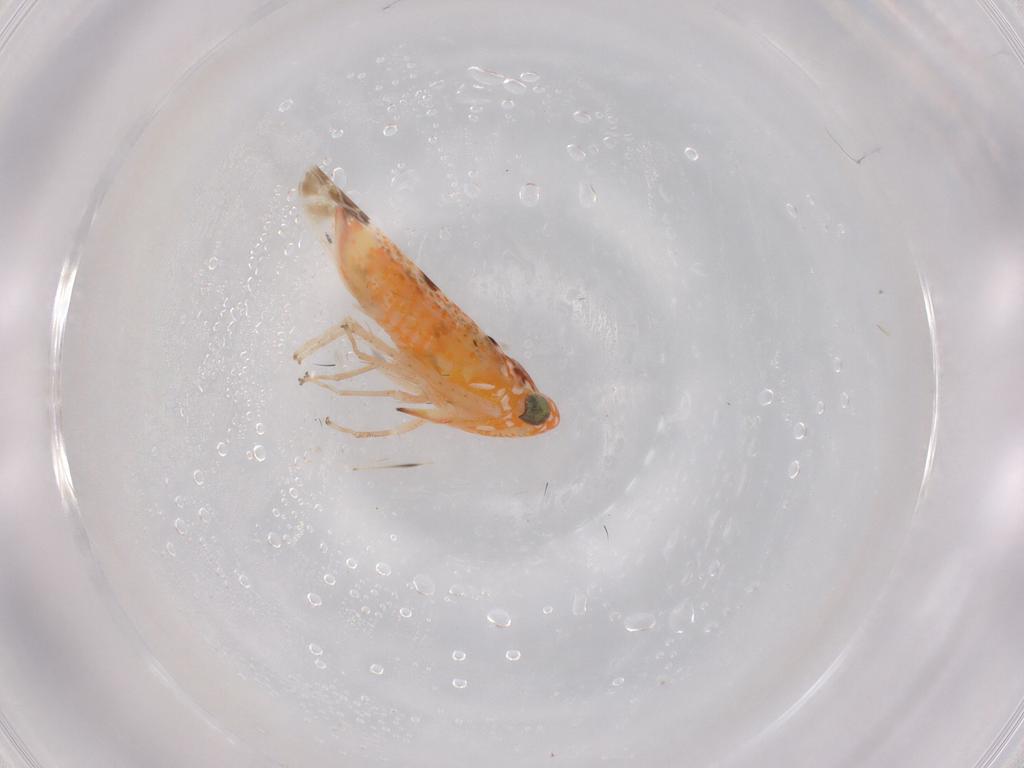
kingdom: Animalia
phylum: Arthropoda
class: Insecta
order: Hemiptera
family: Cicadellidae
